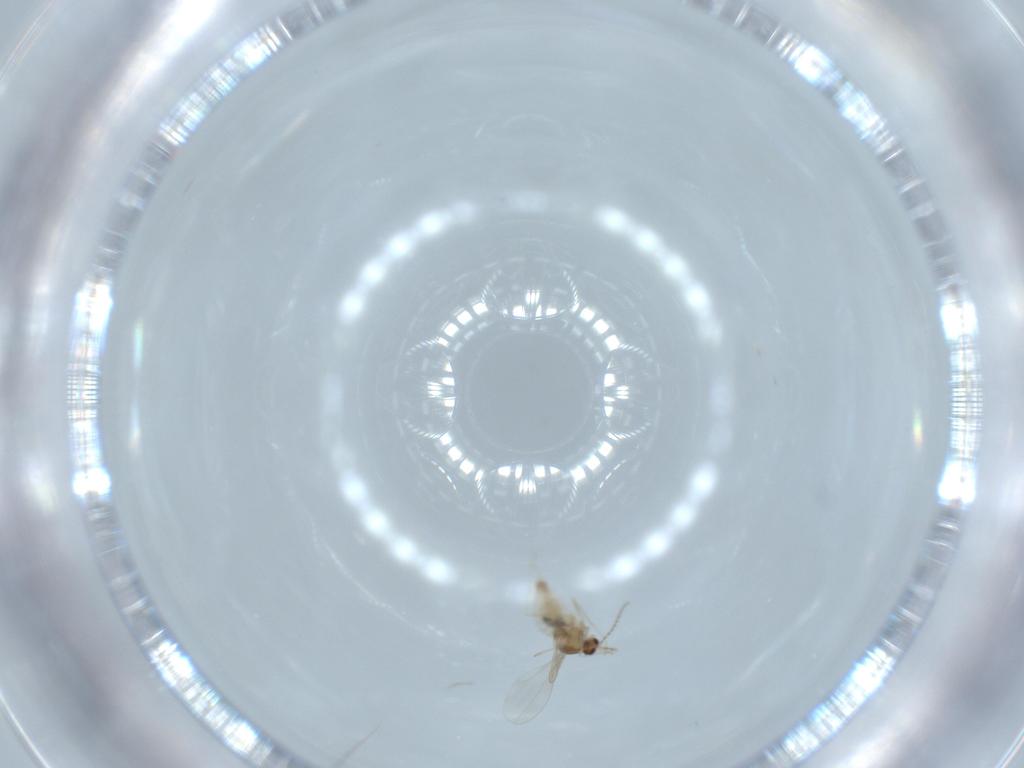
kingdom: Animalia
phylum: Arthropoda
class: Insecta
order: Diptera
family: Cecidomyiidae
